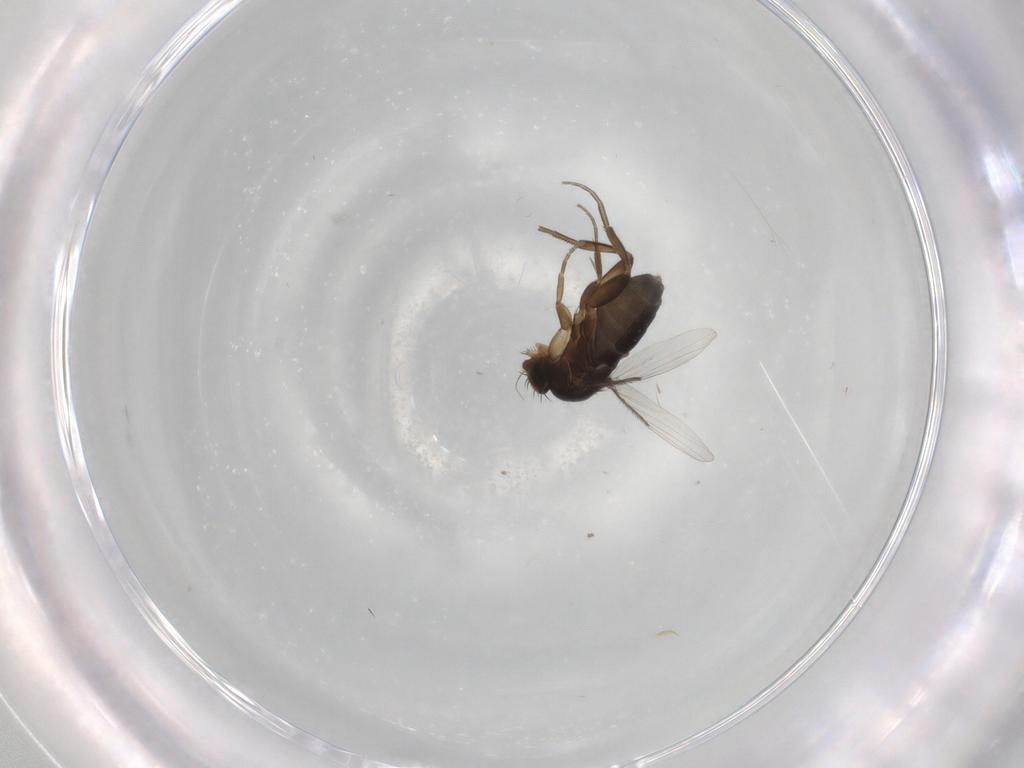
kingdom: Animalia
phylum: Arthropoda
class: Insecta
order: Diptera
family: Phoridae
